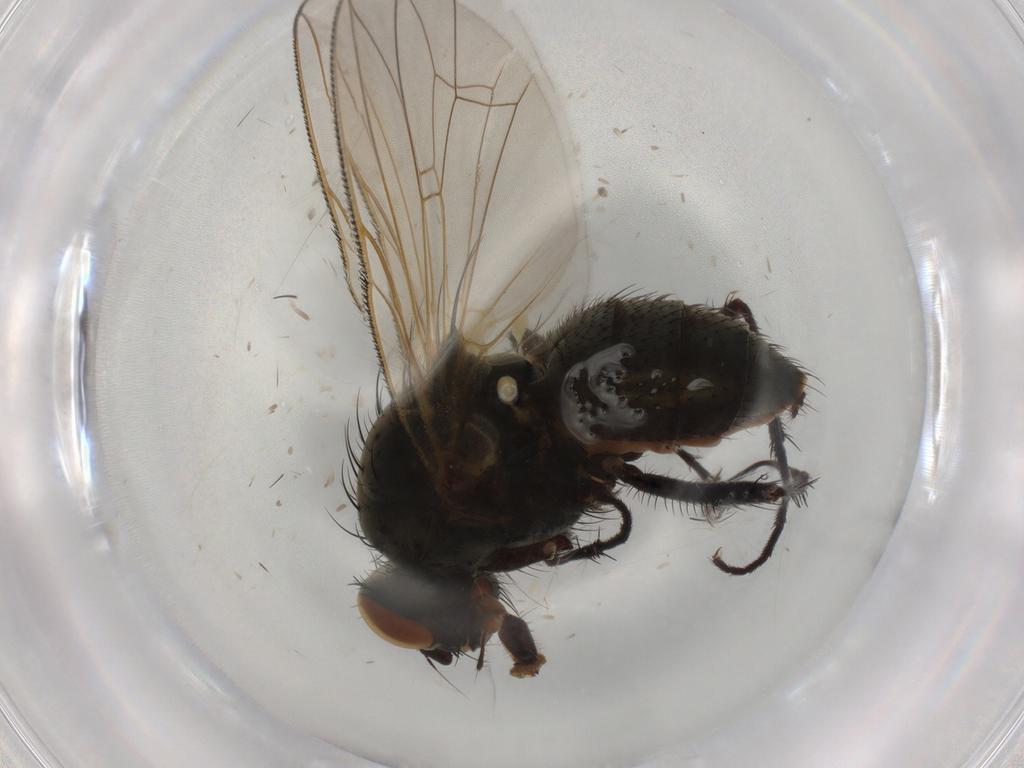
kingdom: Animalia
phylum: Arthropoda
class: Insecta
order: Diptera
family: Anthomyiidae
